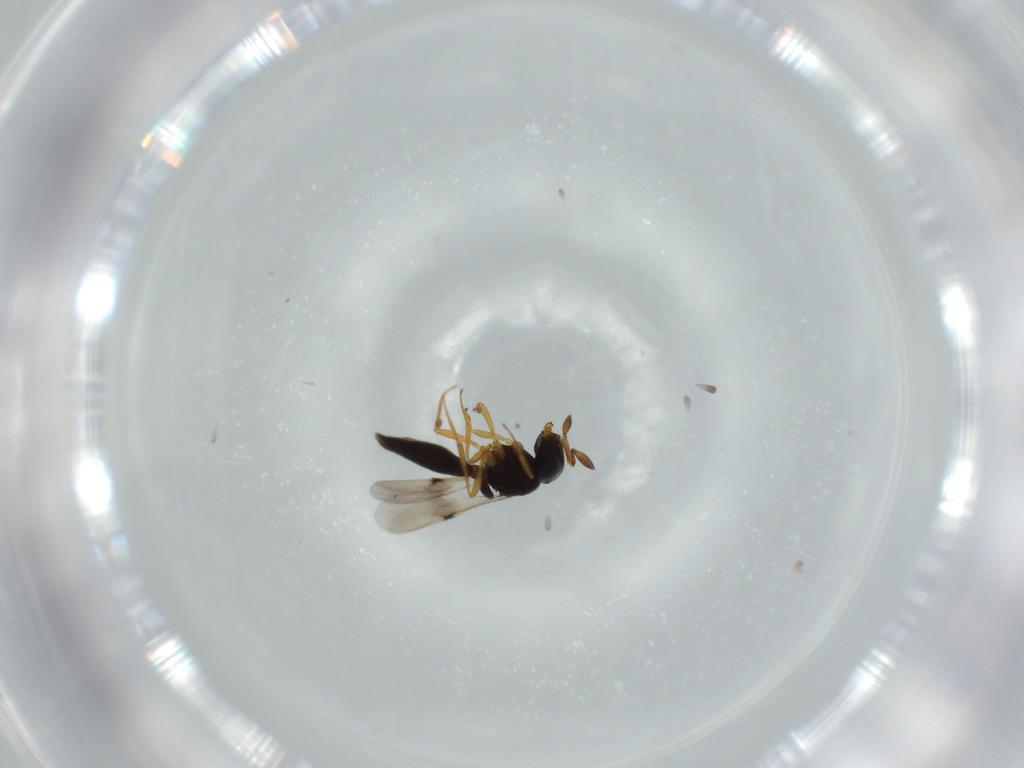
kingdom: Animalia
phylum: Arthropoda
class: Insecta
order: Hymenoptera
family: Scelionidae
